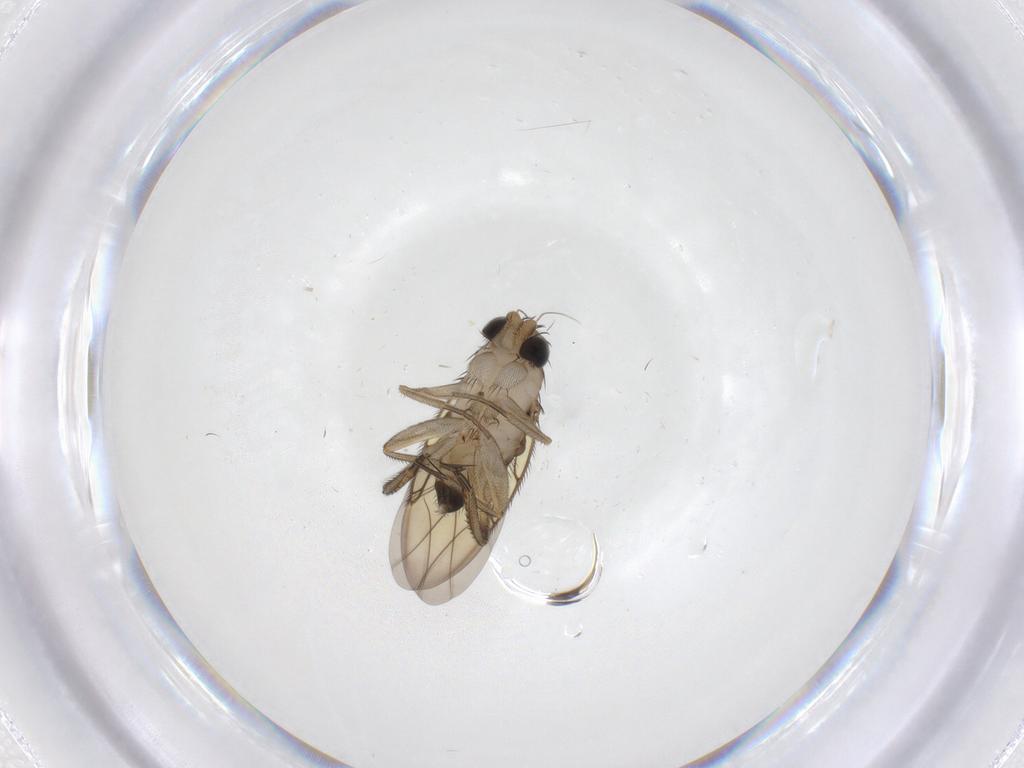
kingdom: Animalia
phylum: Arthropoda
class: Insecta
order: Diptera
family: Phoridae
